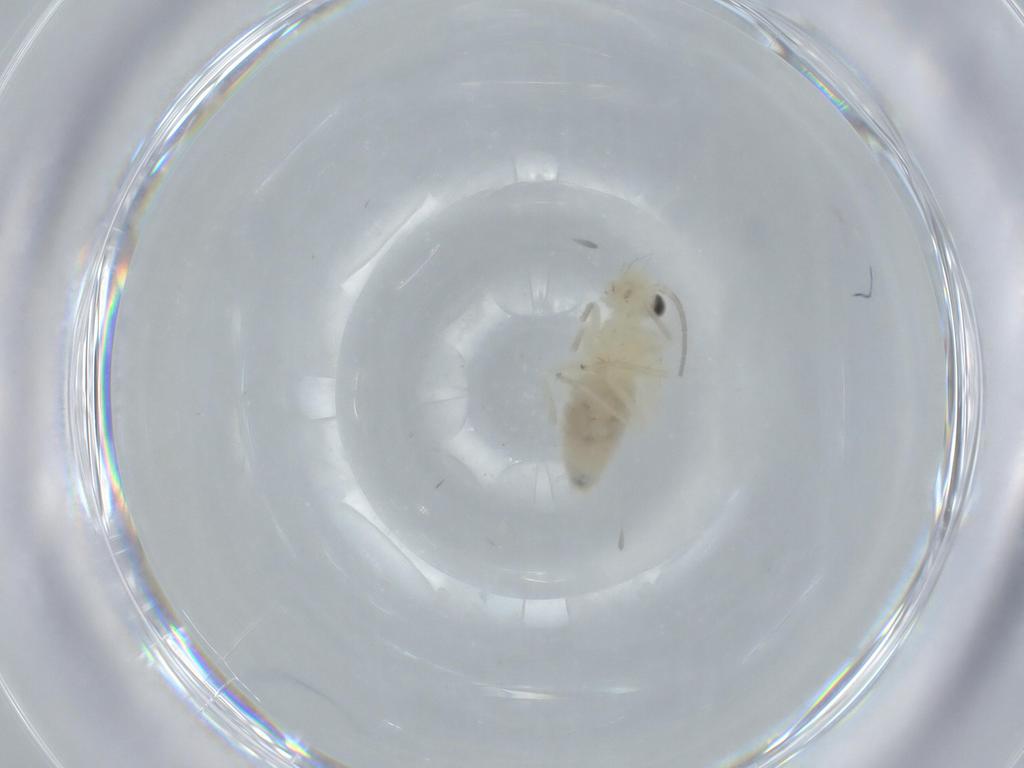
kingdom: Animalia
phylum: Arthropoda
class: Insecta
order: Psocodea
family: Caeciliusidae
